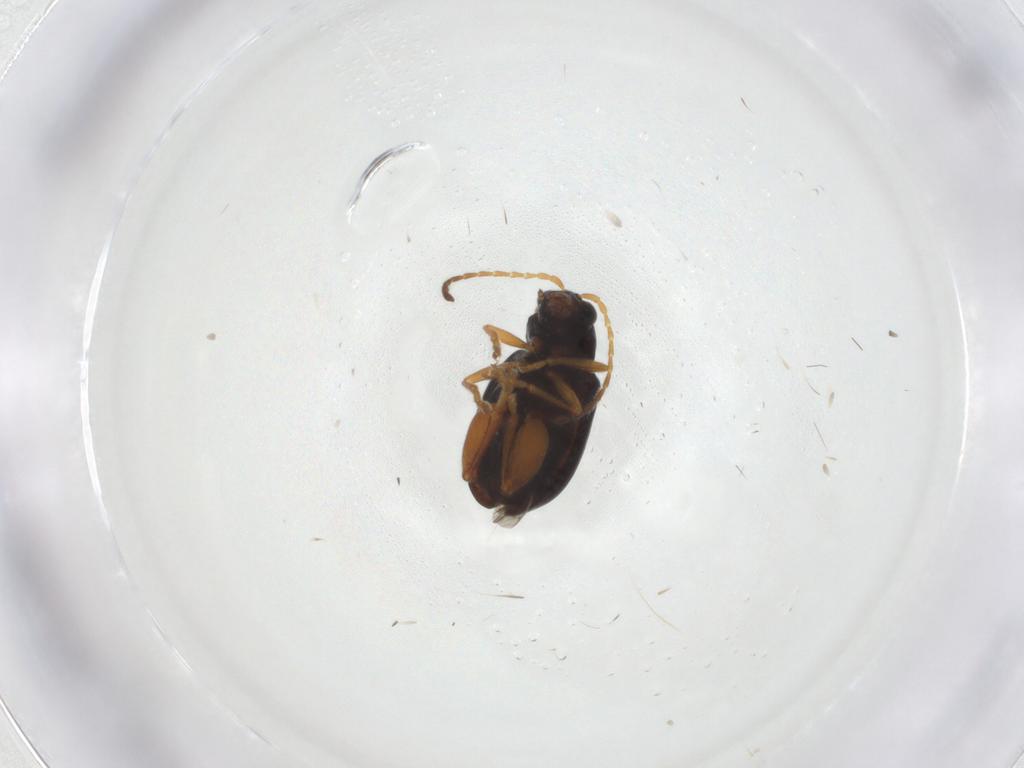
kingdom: Animalia
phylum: Arthropoda
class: Insecta
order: Coleoptera
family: Chrysomelidae
